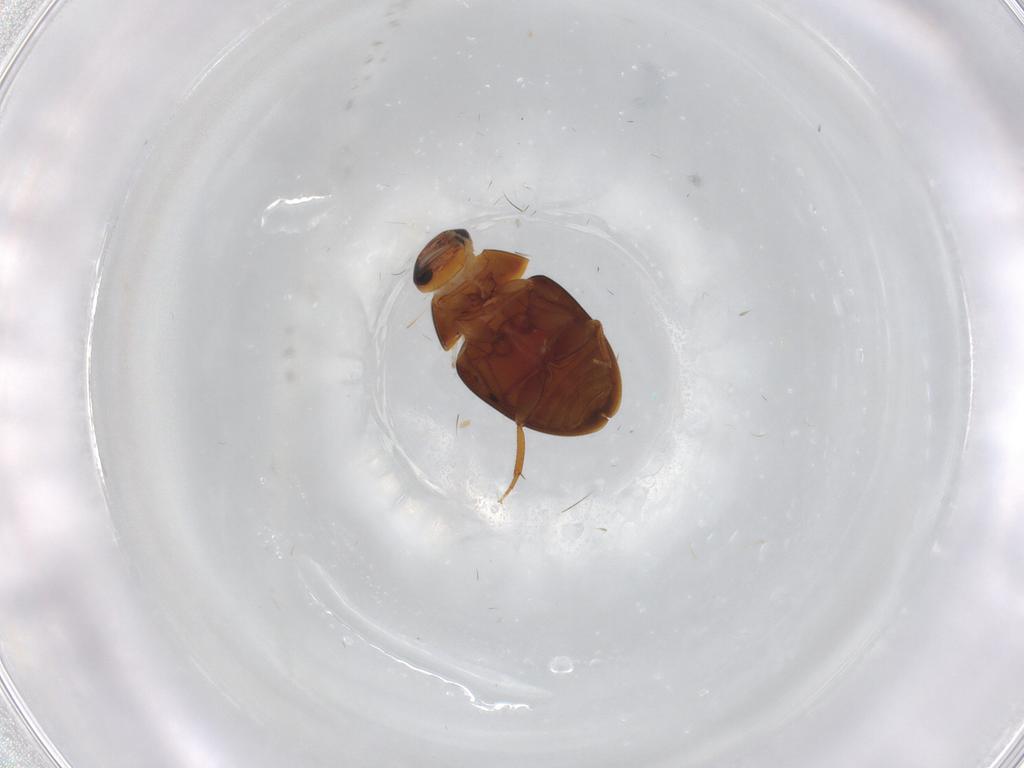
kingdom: Animalia
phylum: Arthropoda
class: Insecta
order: Coleoptera
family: Phalacridae
